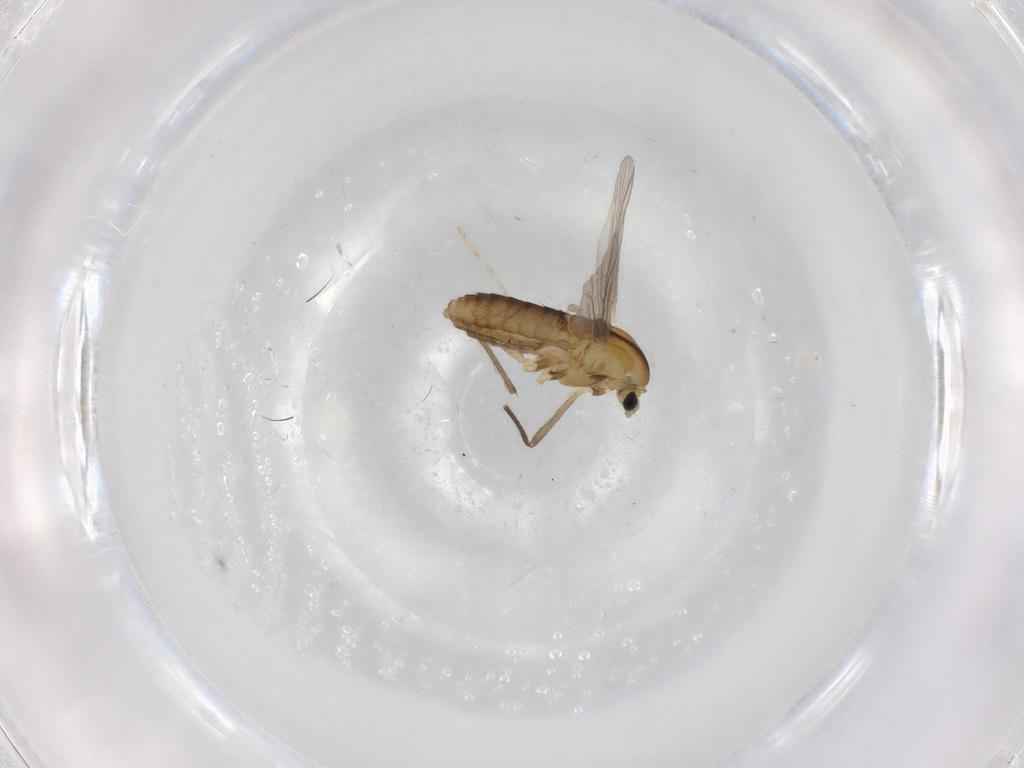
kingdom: Animalia
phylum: Arthropoda
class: Insecta
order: Diptera
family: Chironomidae
